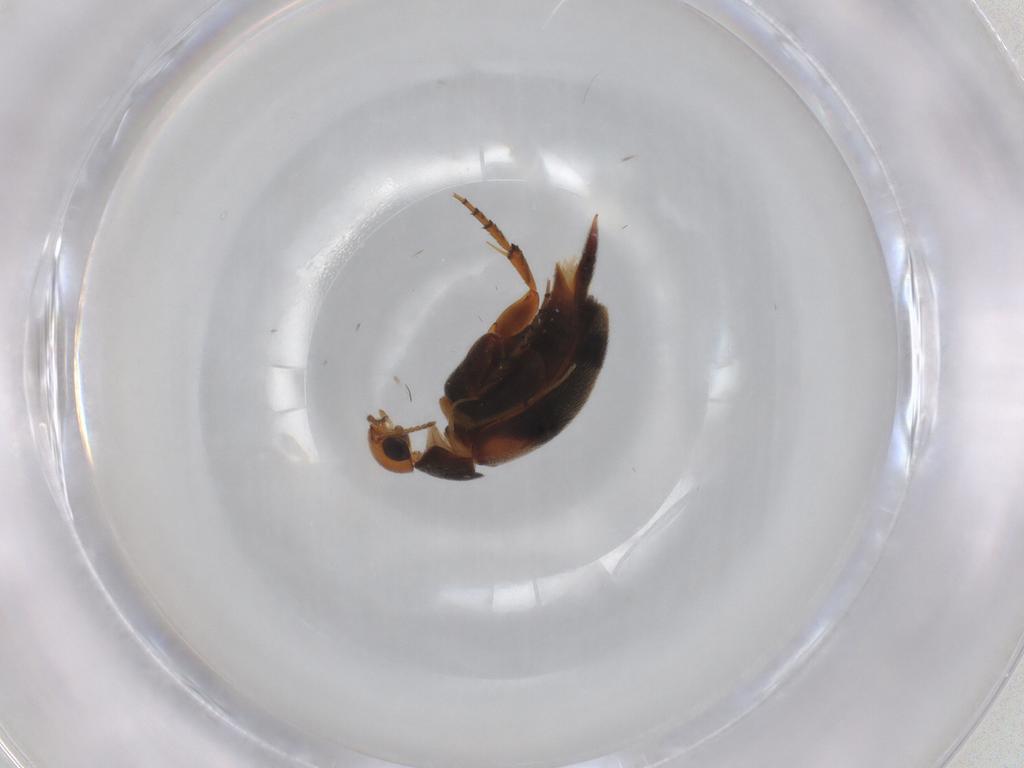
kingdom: Animalia
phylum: Arthropoda
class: Insecta
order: Coleoptera
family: Mordellidae
